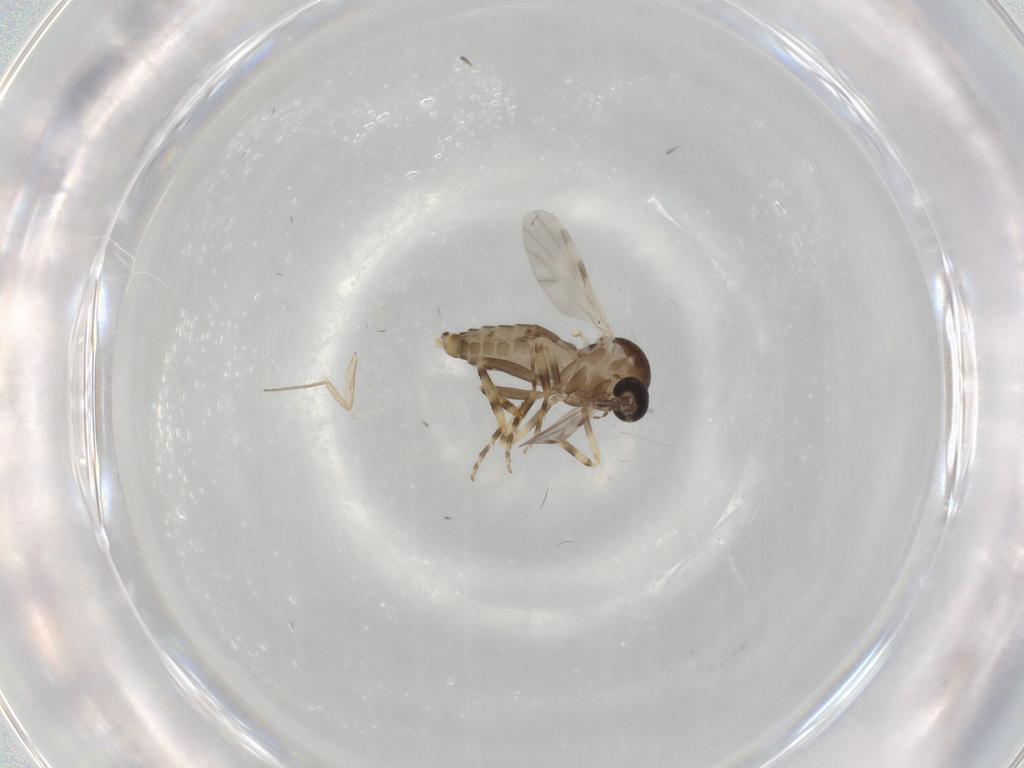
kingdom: Animalia
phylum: Arthropoda
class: Insecta
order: Diptera
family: Ceratopogonidae
